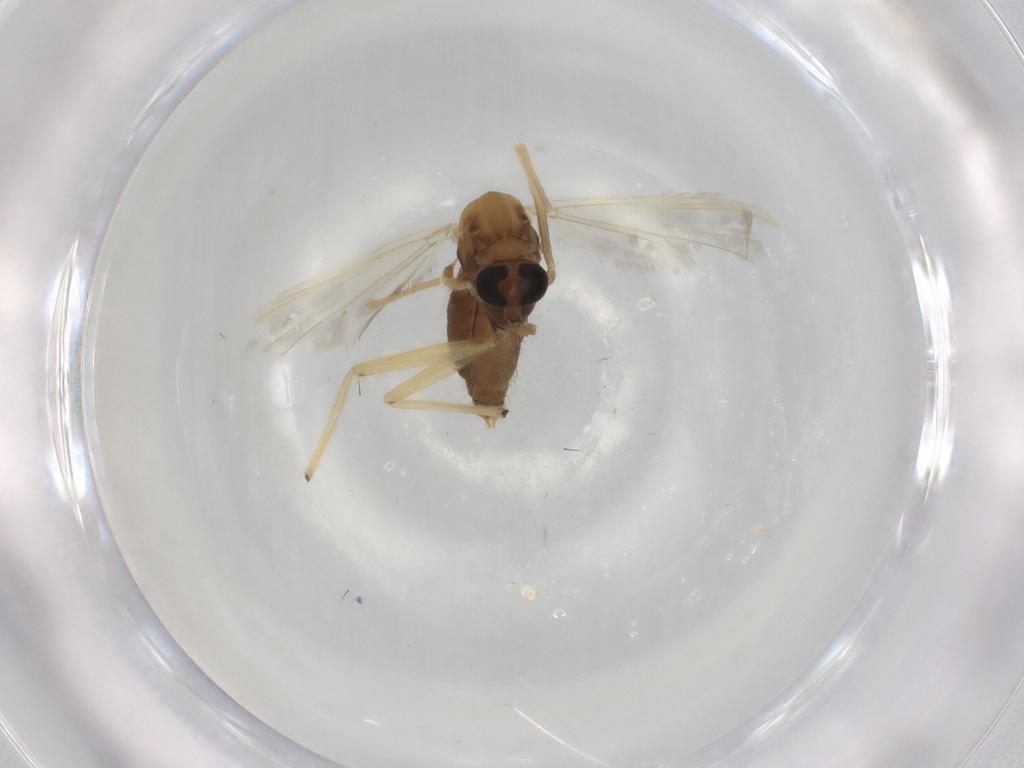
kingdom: Animalia
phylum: Arthropoda
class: Insecta
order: Diptera
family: Chironomidae
